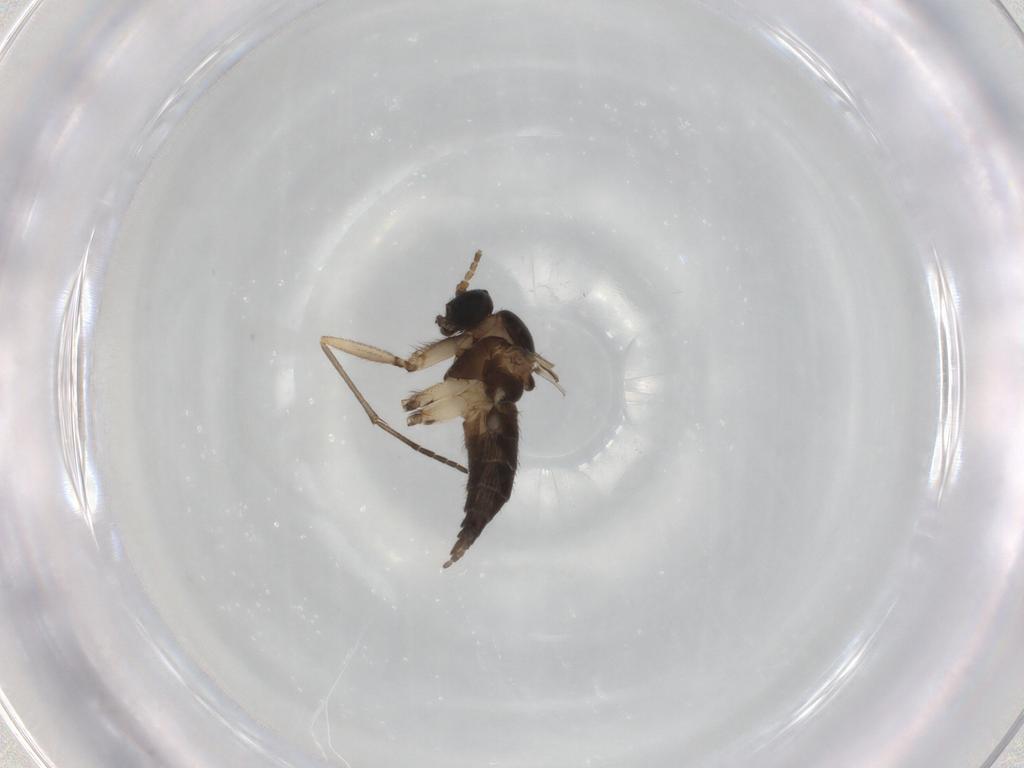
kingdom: Animalia
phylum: Arthropoda
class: Insecta
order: Diptera
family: Sciaridae
